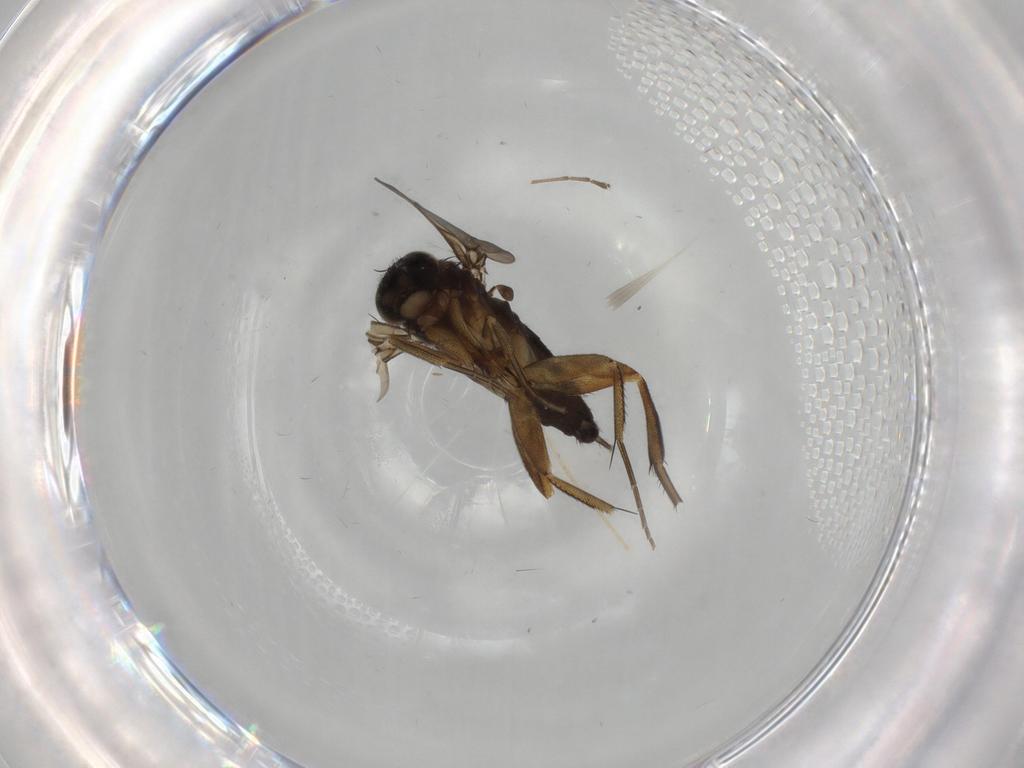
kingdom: Animalia
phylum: Arthropoda
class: Insecta
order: Diptera
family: Phoridae
